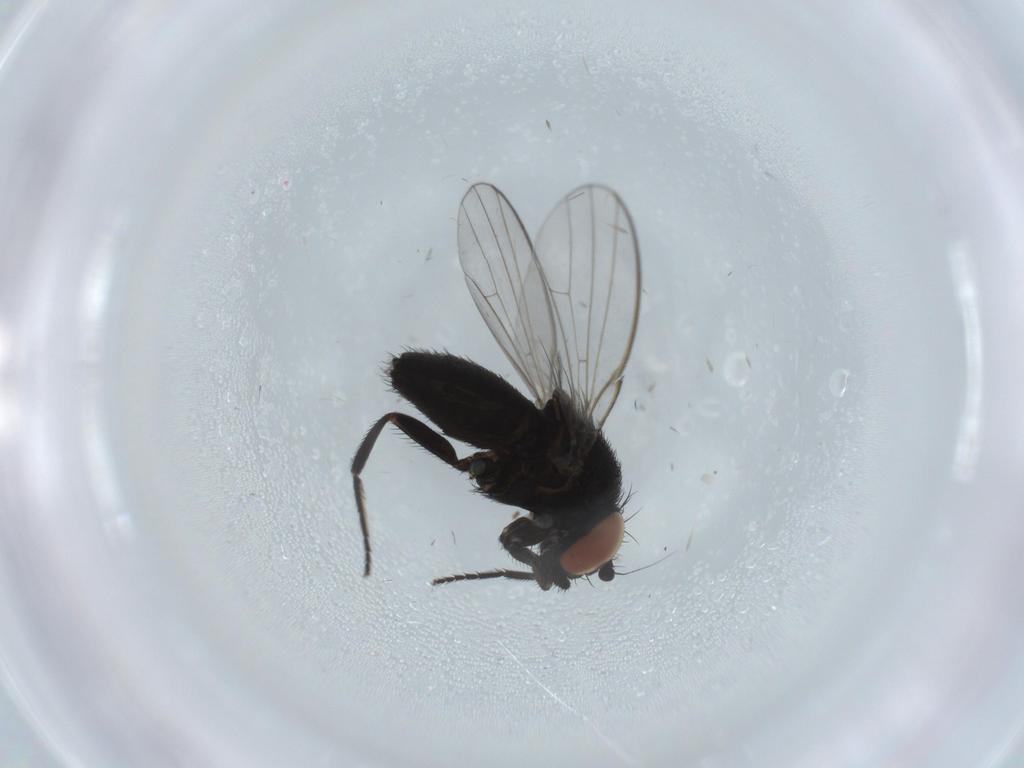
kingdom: Animalia
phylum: Arthropoda
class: Insecta
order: Diptera
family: Milichiidae
